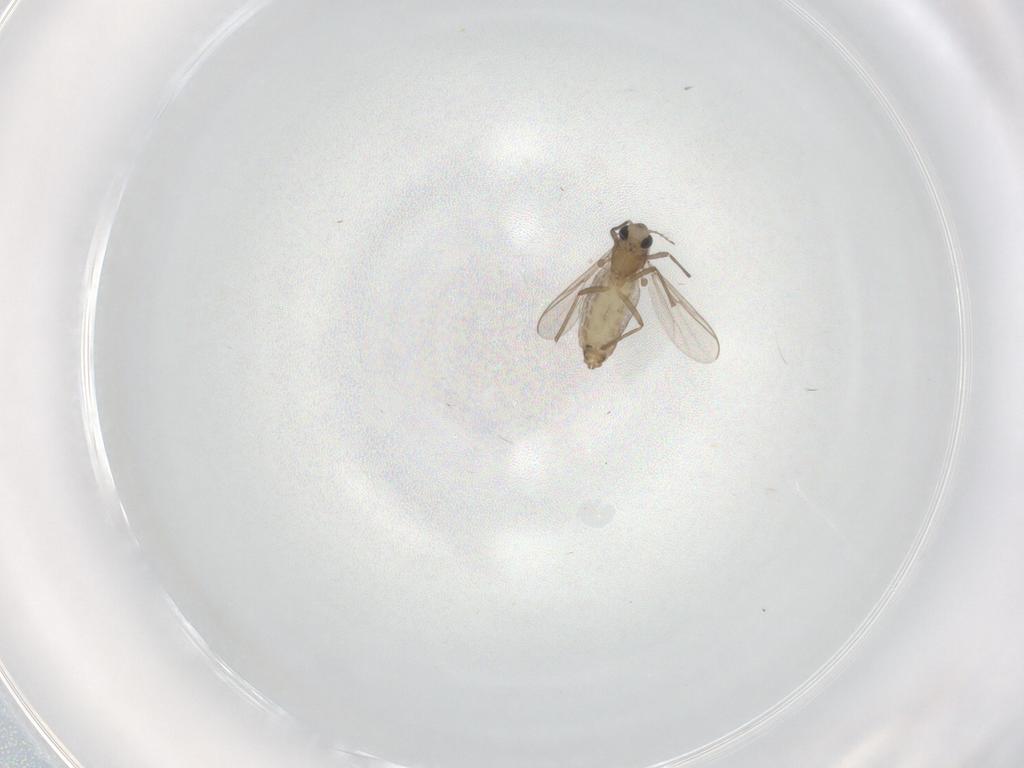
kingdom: Animalia
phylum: Arthropoda
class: Insecta
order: Diptera
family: Chironomidae
